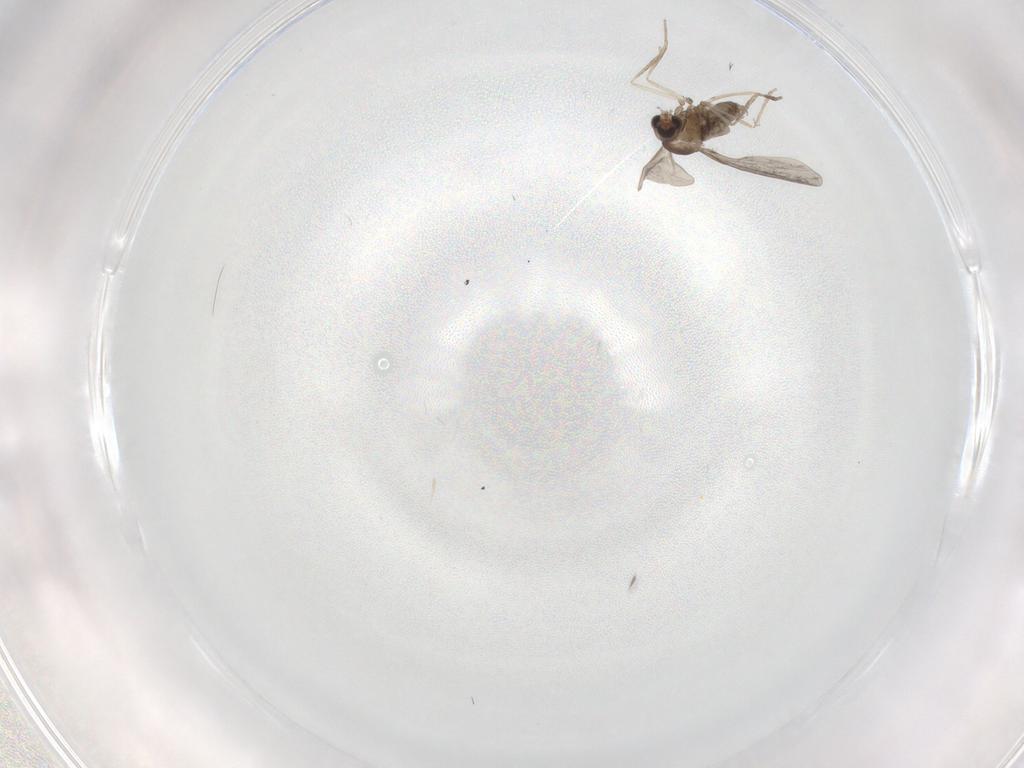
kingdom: Animalia
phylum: Arthropoda
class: Insecta
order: Diptera
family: Cecidomyiidae
